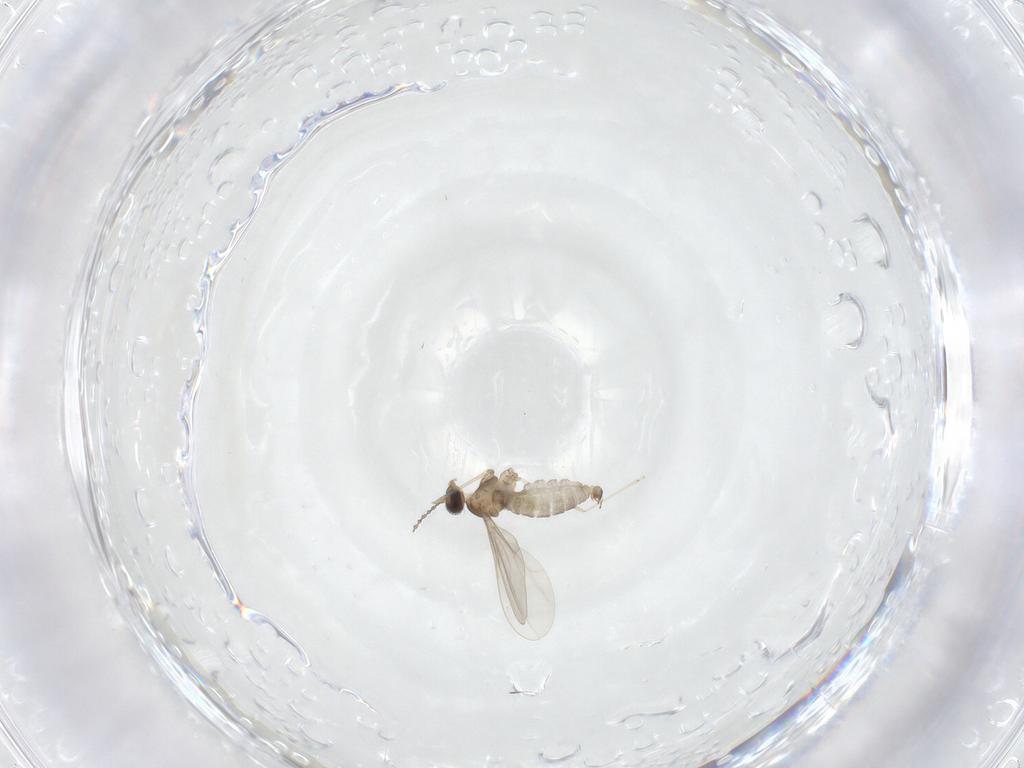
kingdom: Animalia
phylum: Arthropoda
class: Insecta
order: Diptera
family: Cecidomyiidae
